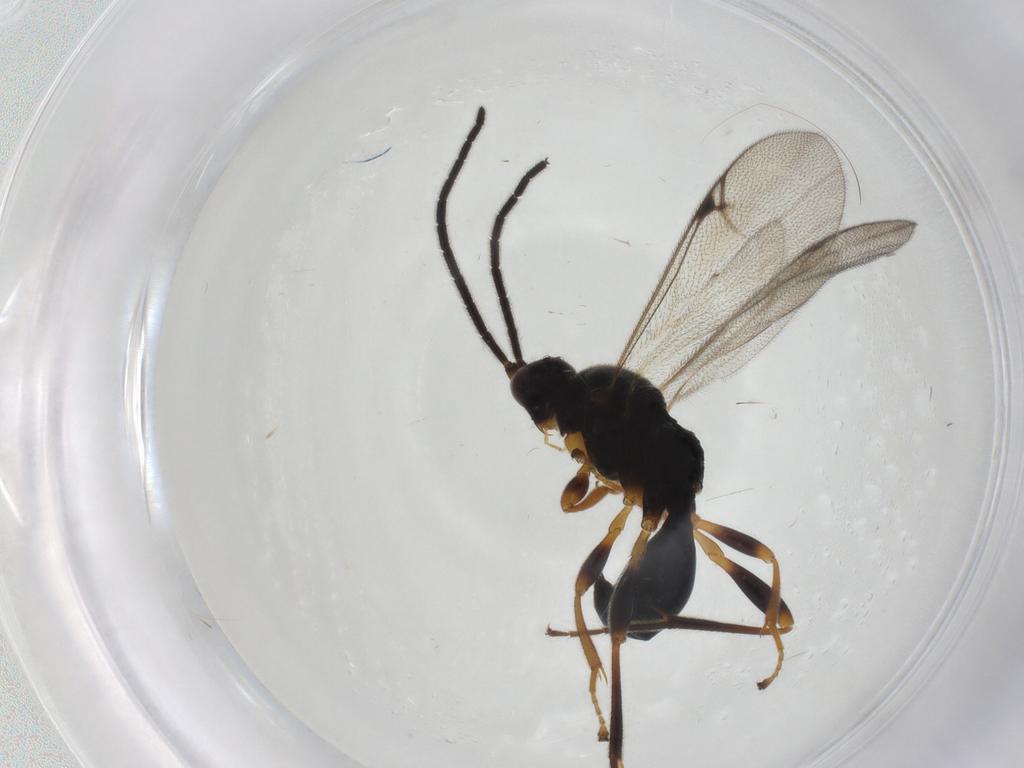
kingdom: Animalia
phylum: Arthropoda
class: Insecta
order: Hymenoptera
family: Proctotrupidae
